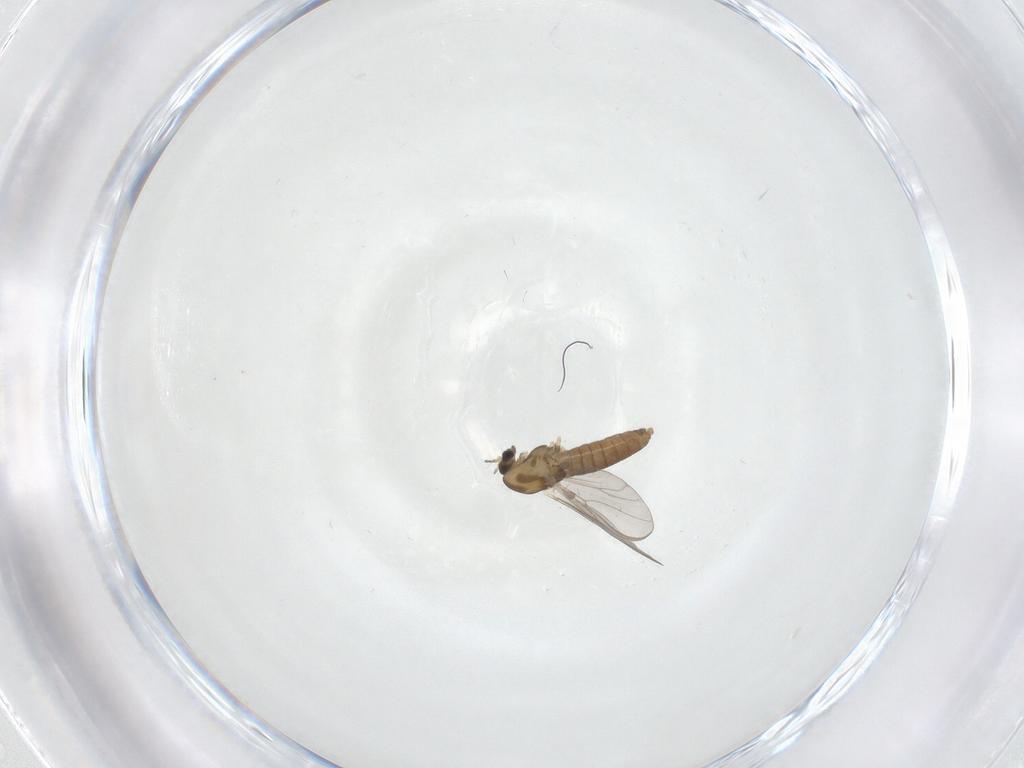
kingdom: Animalia
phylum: Arthropoda
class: Insecta
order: Diptera
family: Chironomidae
